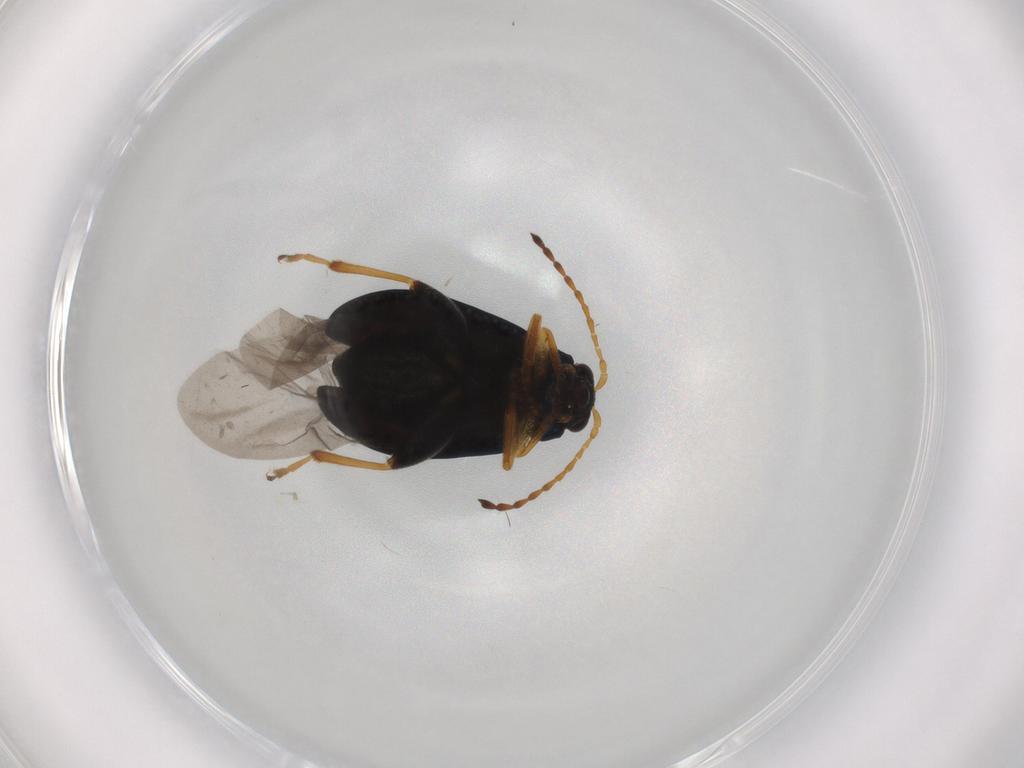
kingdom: Animalia
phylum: Arthropoda
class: Insecta
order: Coleoptera
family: Chrysomelidae
